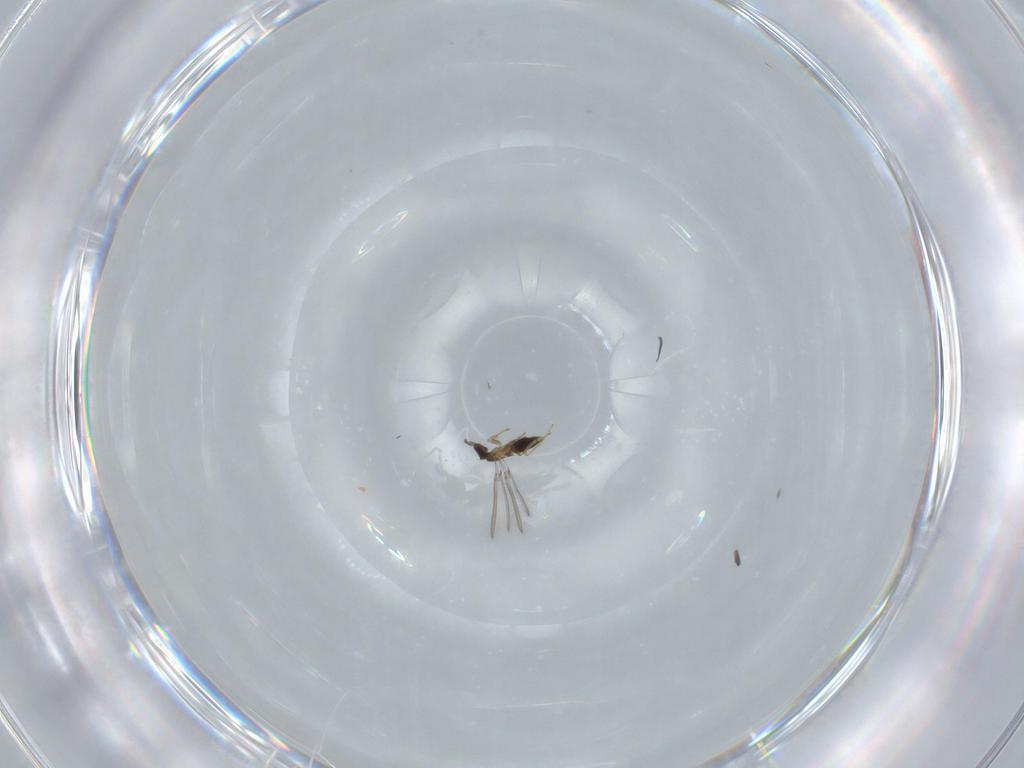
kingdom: Animalia
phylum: Arthropoda
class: Insecta
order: Hymenoptera
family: Mymaridae
